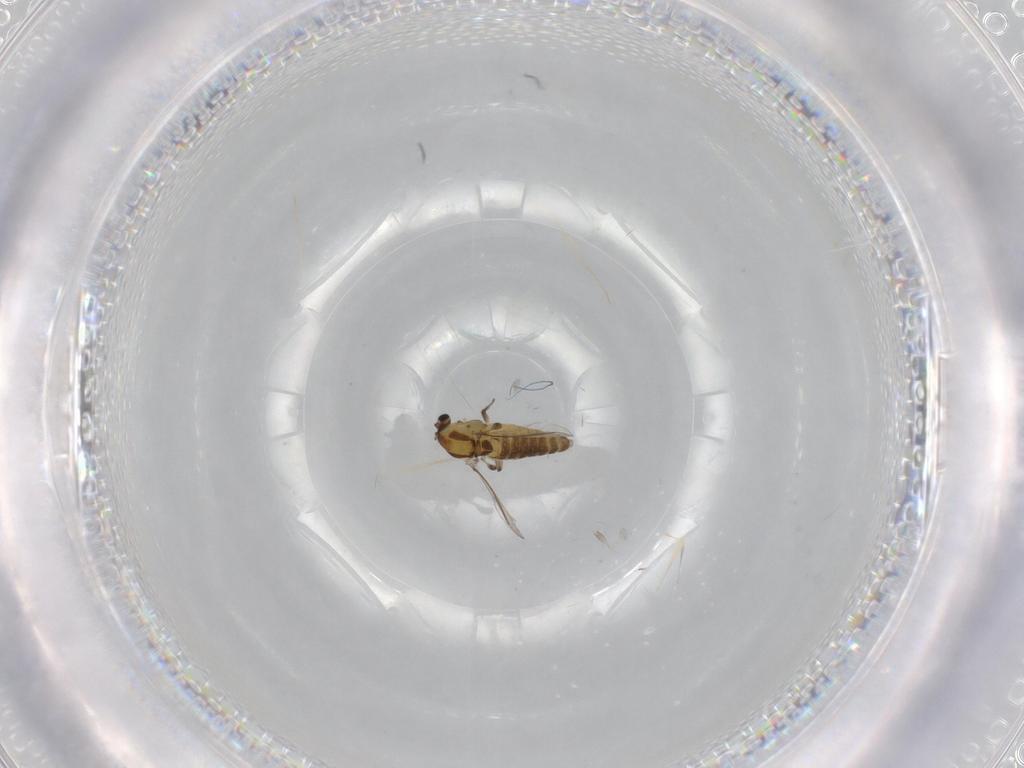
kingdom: Animalia
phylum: Arthropoda
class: Insecta
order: Diptera
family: Chironomidae
